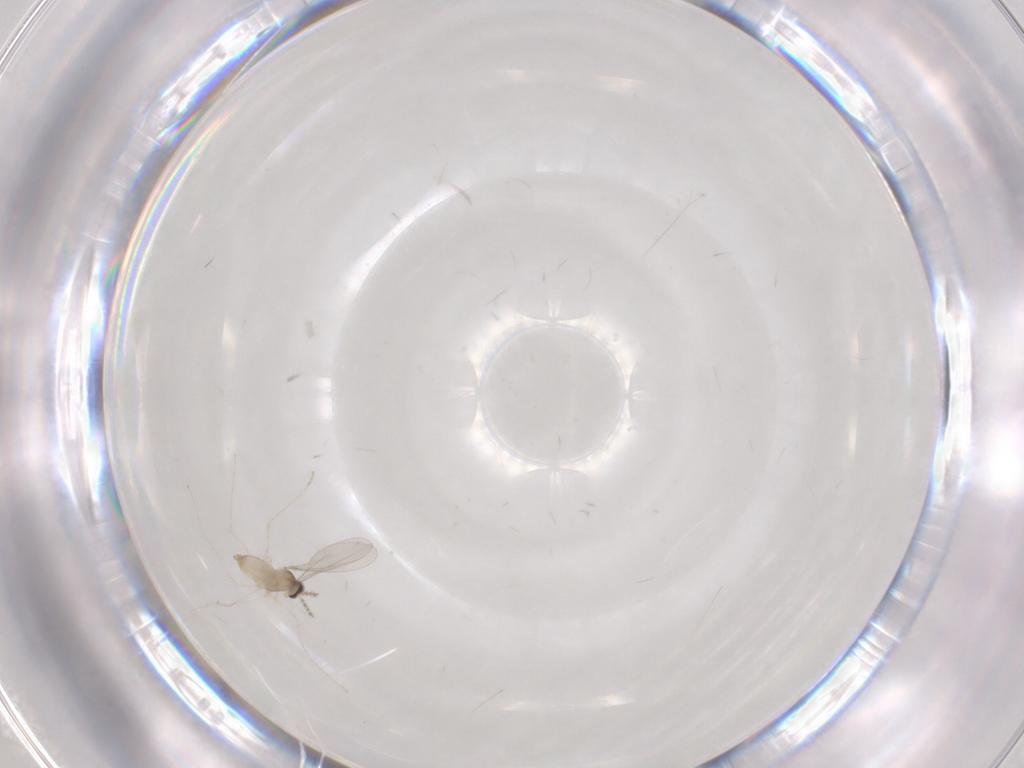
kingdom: Animalia
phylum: Arthropoda
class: Insecta
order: Diptera
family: Cecidomyiidae
